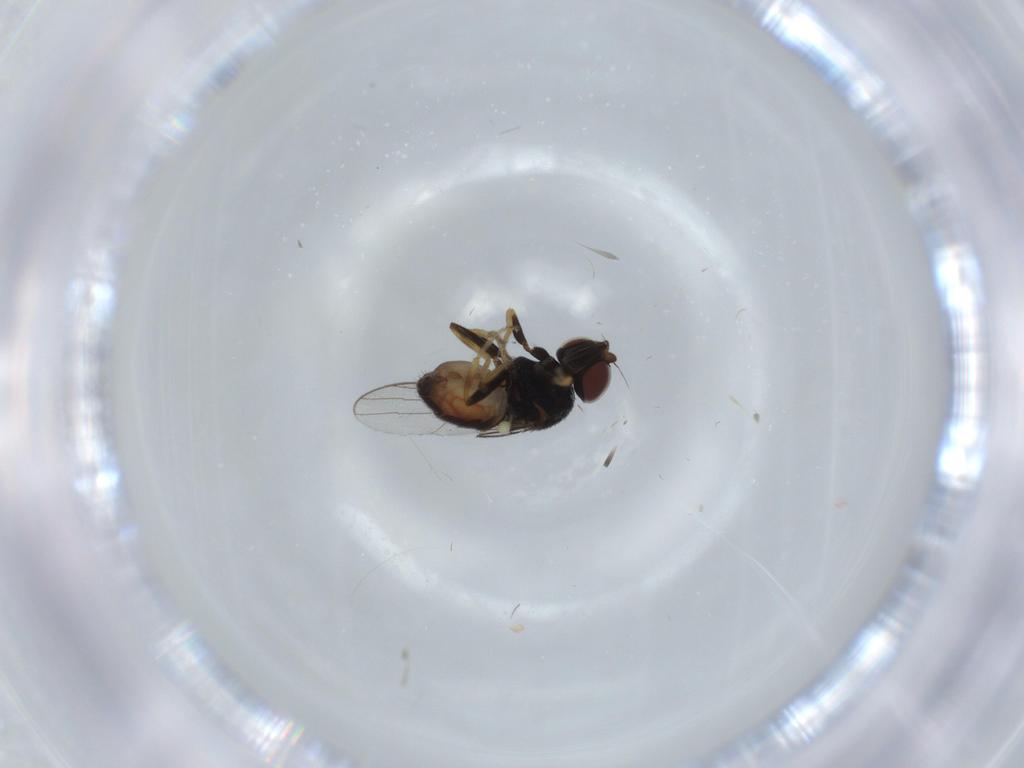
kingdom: Animalia
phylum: Arthropoda
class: Insecta
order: Diptera
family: Chloropidae
